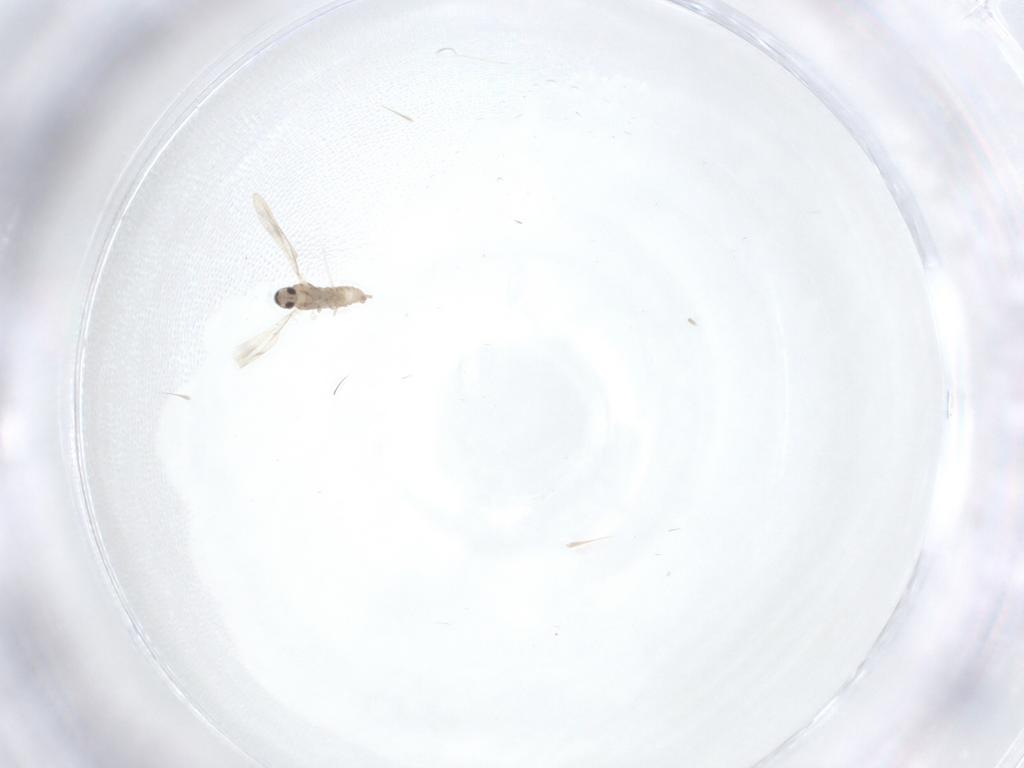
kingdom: Animalia
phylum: Arthropoda
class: Insecta
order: Diptera
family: Cecidomyiidae
